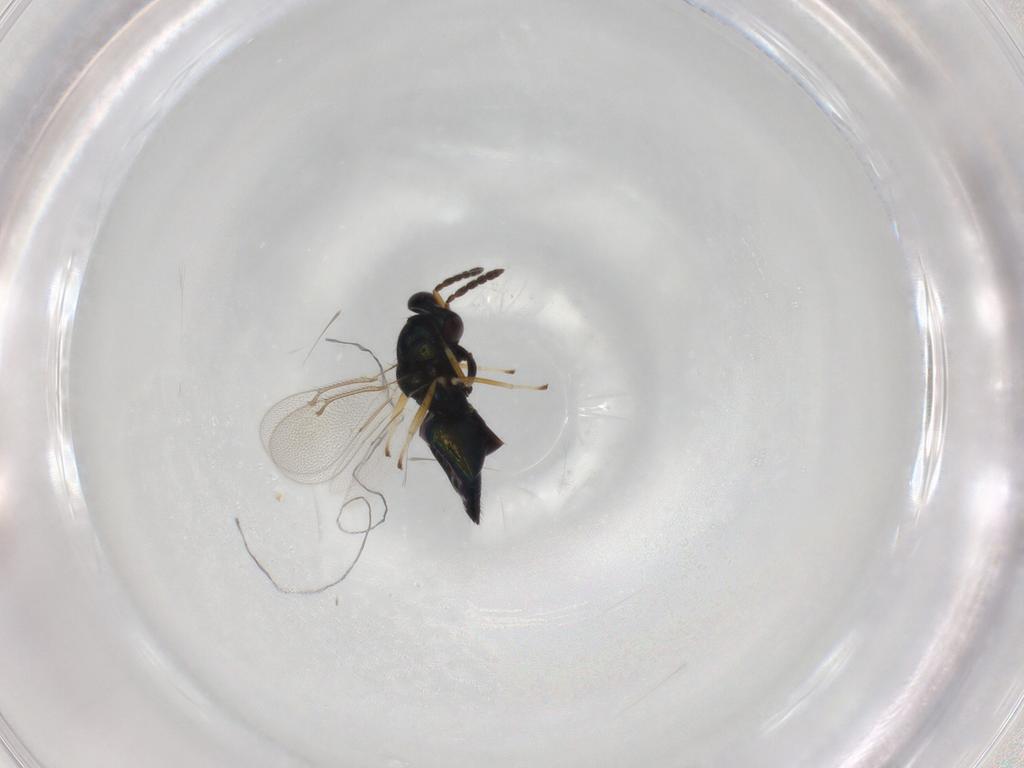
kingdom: Animalia
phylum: Arthropoda
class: Insecta
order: Hymenoptera
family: Eulophidae
